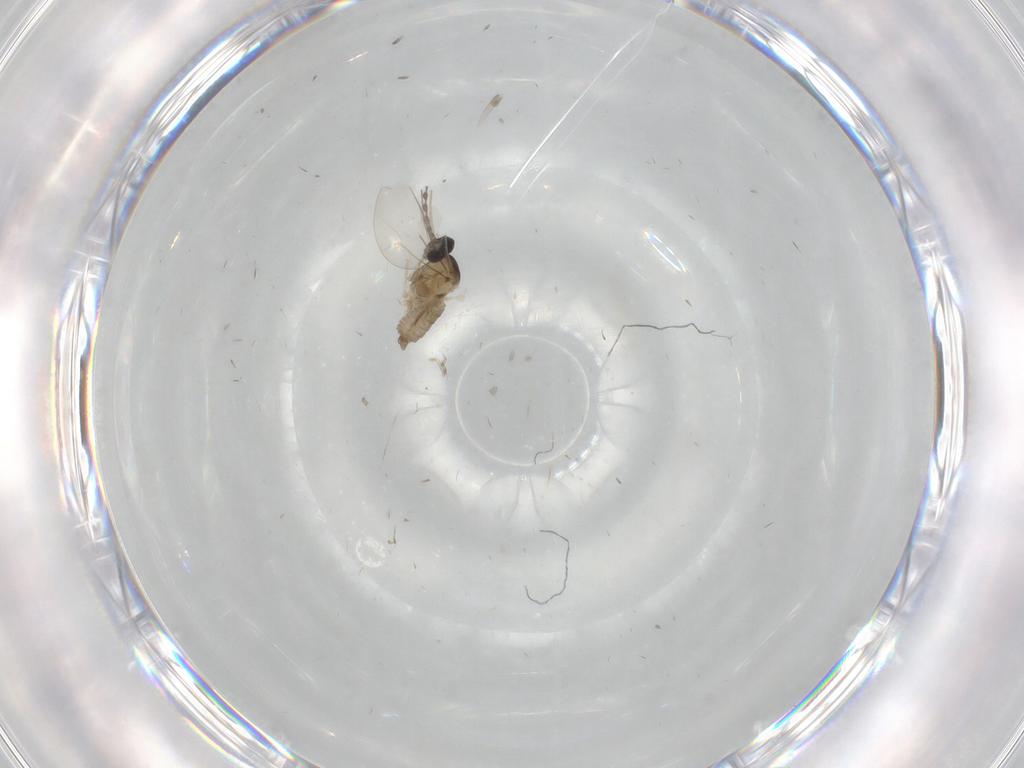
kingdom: Animalia
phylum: Arthropoda
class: Insecta
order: Diptera
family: Cecidomyiidae
